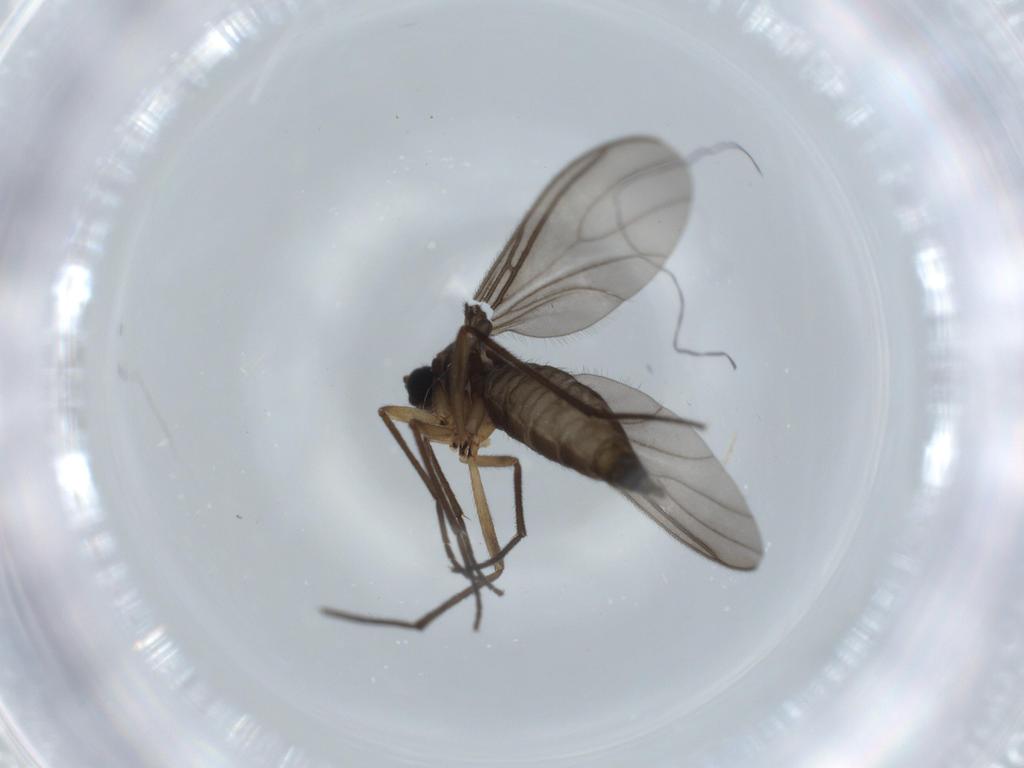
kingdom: Animalia
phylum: Arthropoda
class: Insecta
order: Diptera
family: Sciaridae
